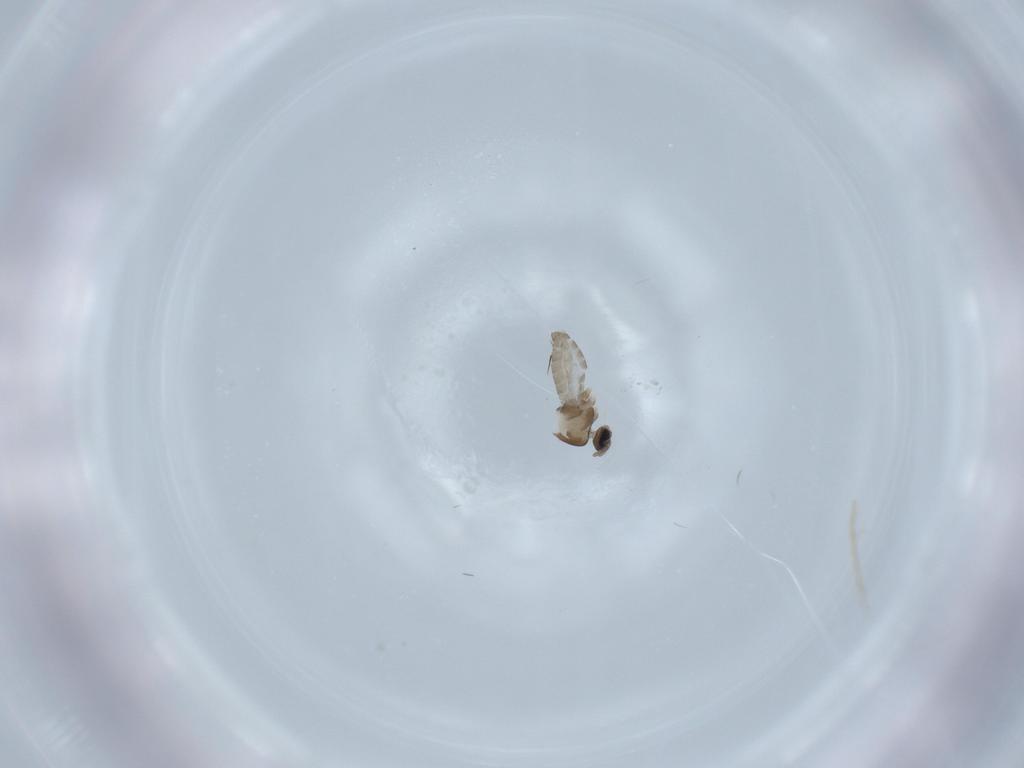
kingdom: Animalia
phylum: Arthropoda
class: Insecta
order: Diptera
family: Cecidomyiidae
